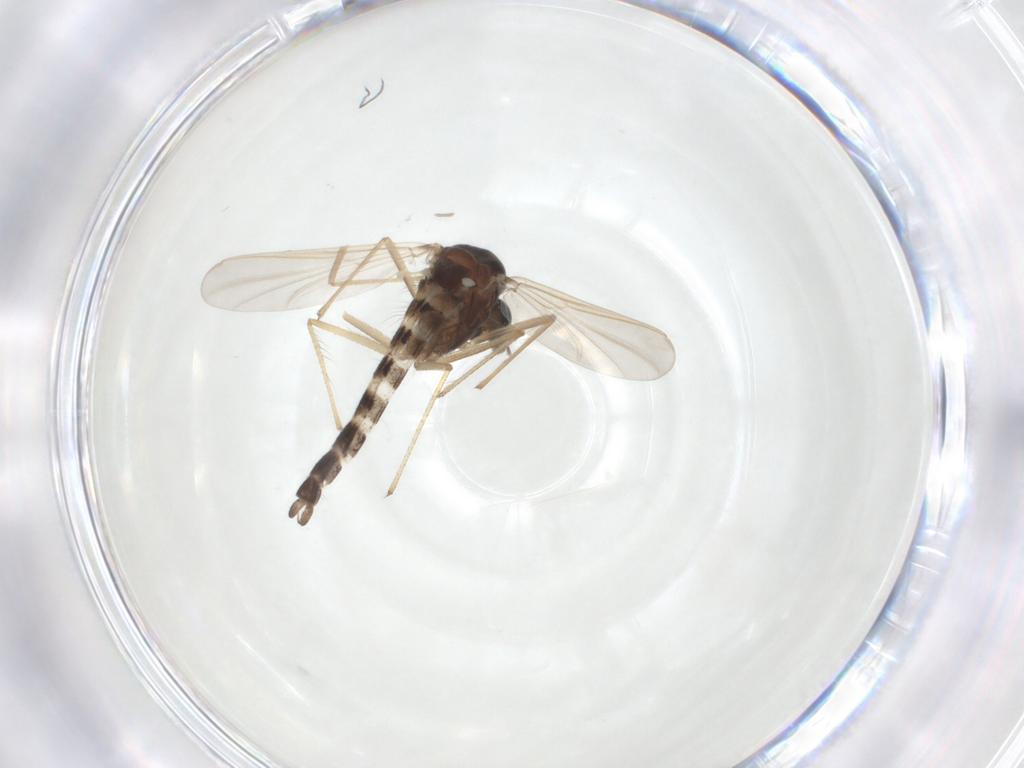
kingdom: Animalia
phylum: Arthropoda
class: Insecta
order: Diptera
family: Chironomidae
